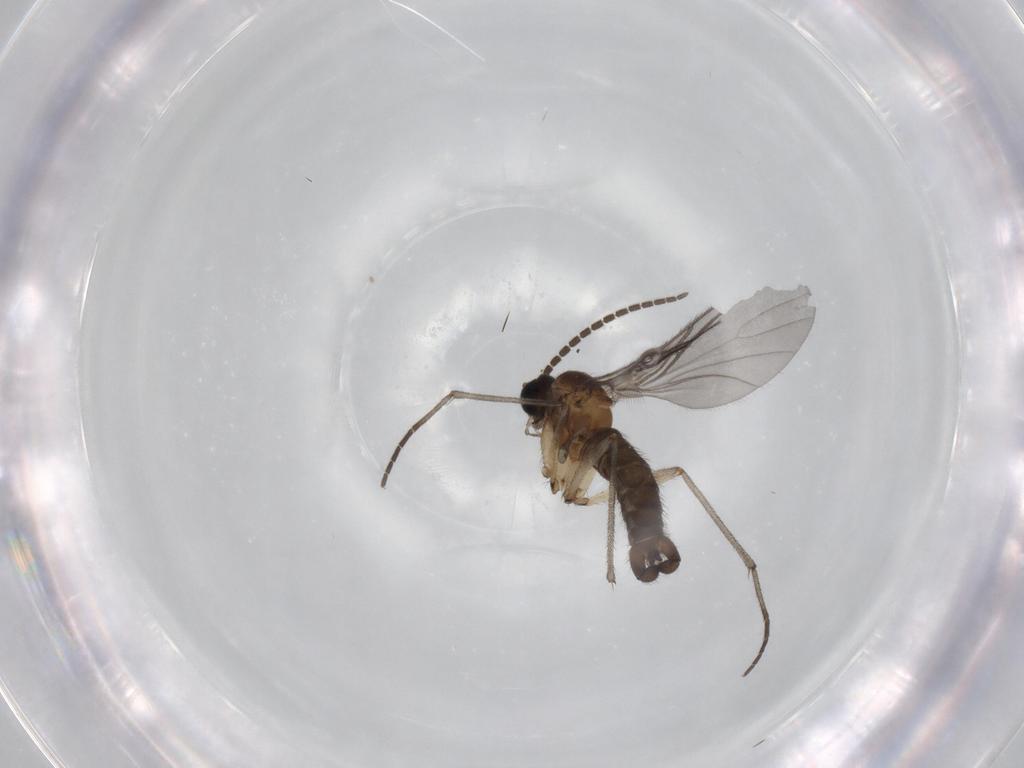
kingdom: Animalia
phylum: Arthropoda
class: Insecta
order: Diptera
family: Sciaridae
